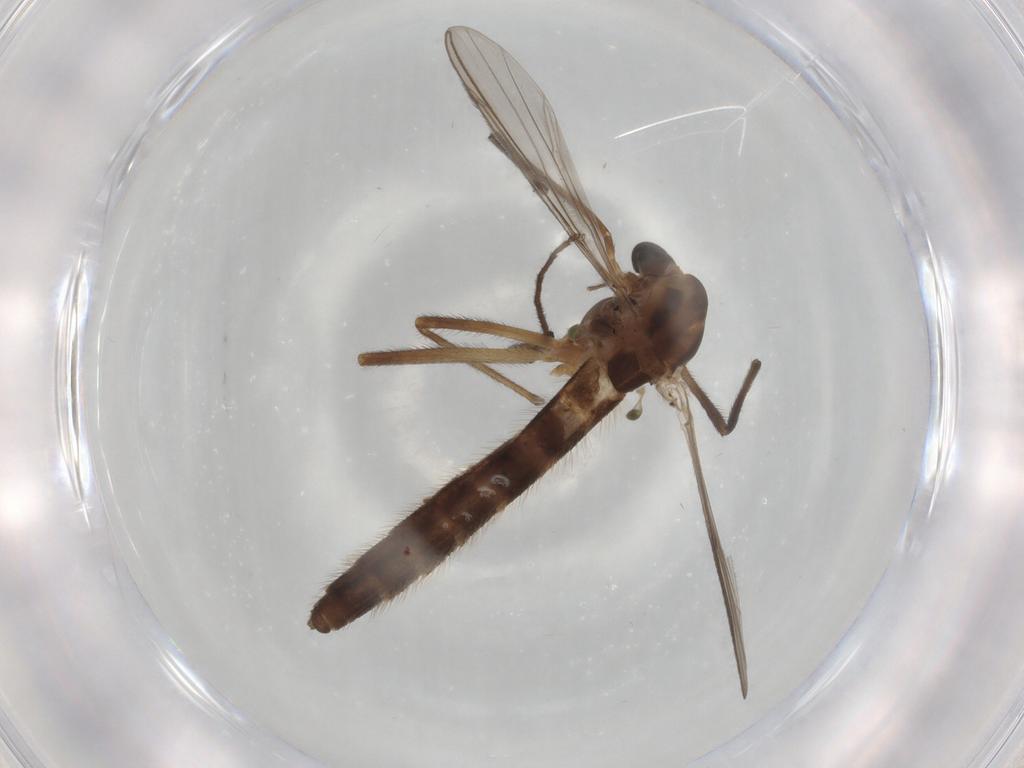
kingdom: Animalia
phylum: Arthropoda
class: Insecta
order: Diptera
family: Cecidomyiidae
